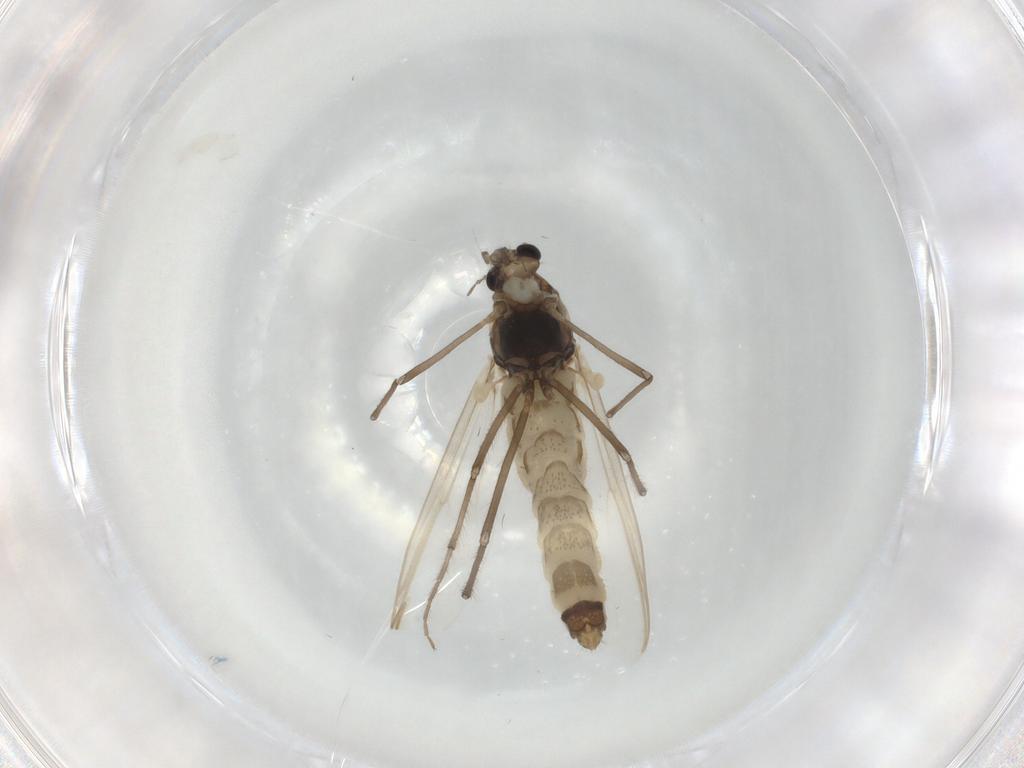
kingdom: Animalia
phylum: Arthropoda
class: Insecta
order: Diptera
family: Chironomidae
